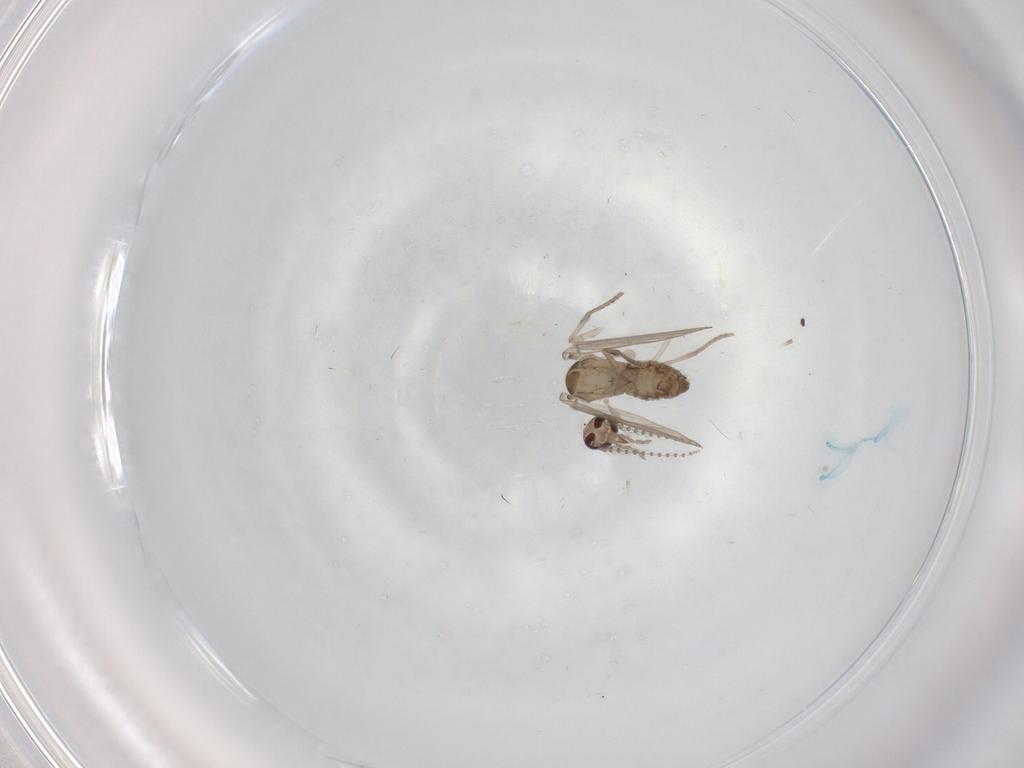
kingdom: Animalia
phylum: Arthropoda
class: Insecta
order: Diptera
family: Psychodidae
